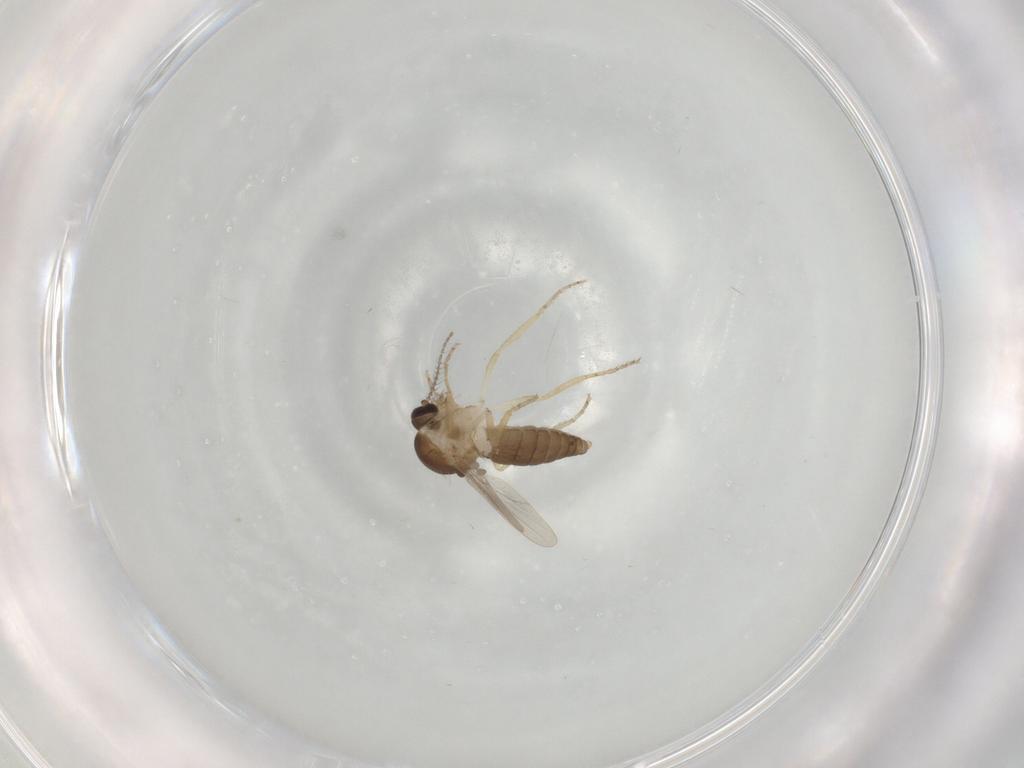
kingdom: Animalia
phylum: Arthropoda
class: Insecta
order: Diptera
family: Ceratopogonidae
